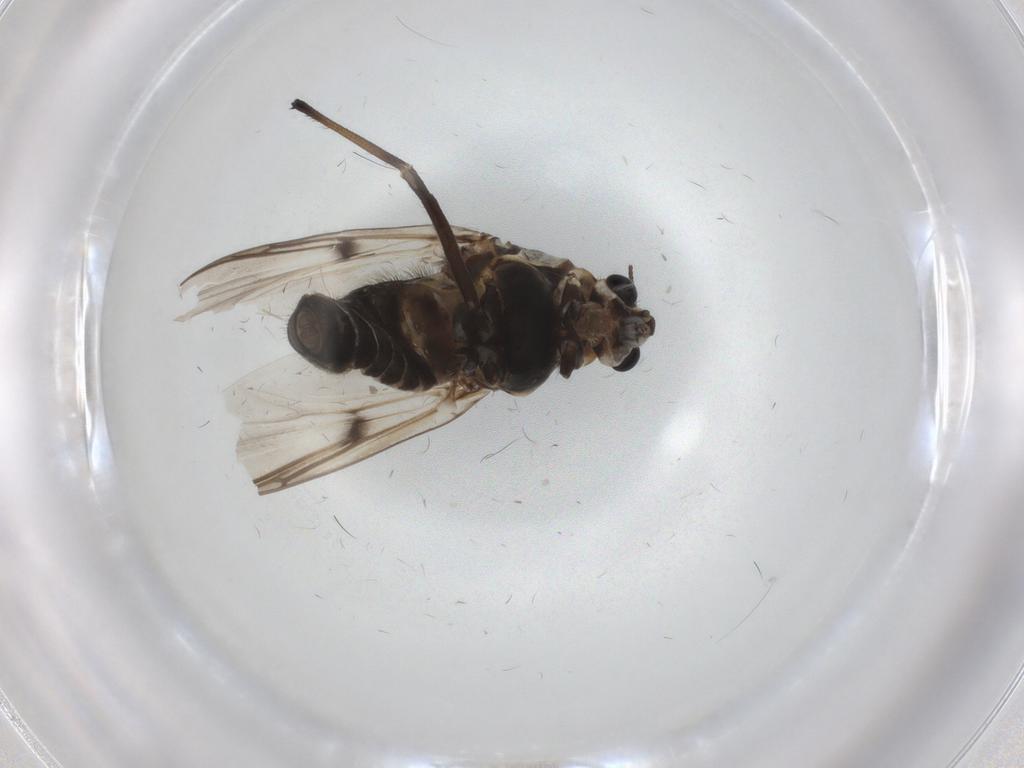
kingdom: Animalia
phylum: Arthropoda
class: Insecta
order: Diptera
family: Chironomidae
